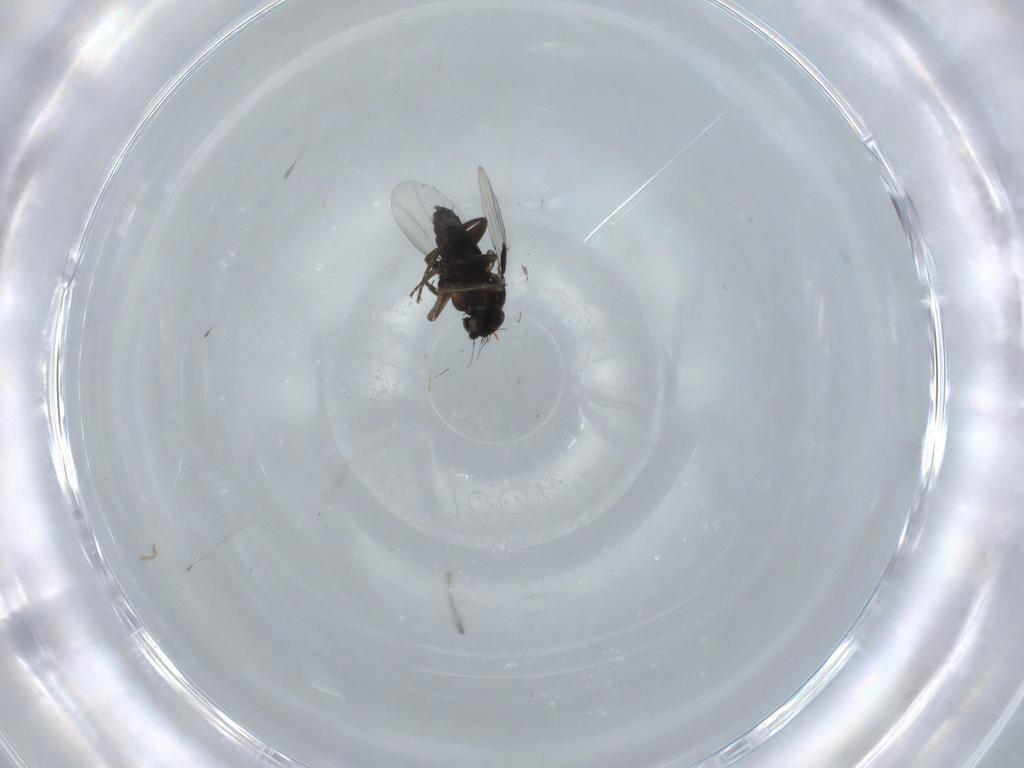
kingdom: Animalia
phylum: Arthropoda
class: Insecta
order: Diptera
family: Phoridae
